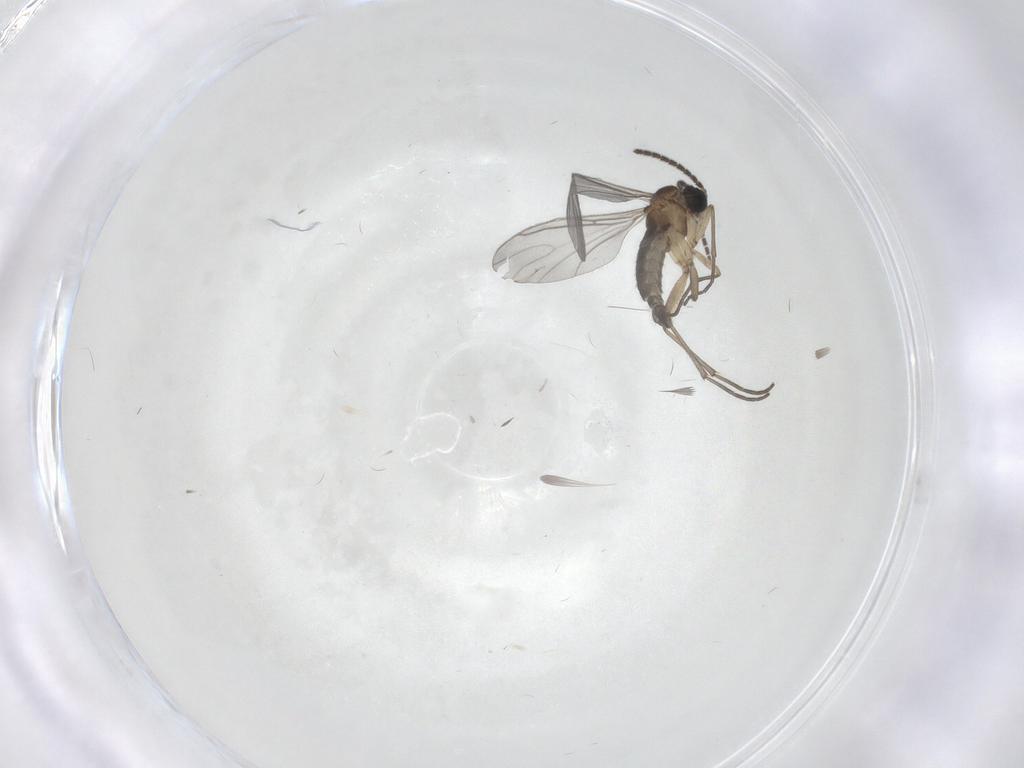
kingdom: Animalia
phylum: Arthropoda
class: Insecta
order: Diptera
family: Sciaridae
